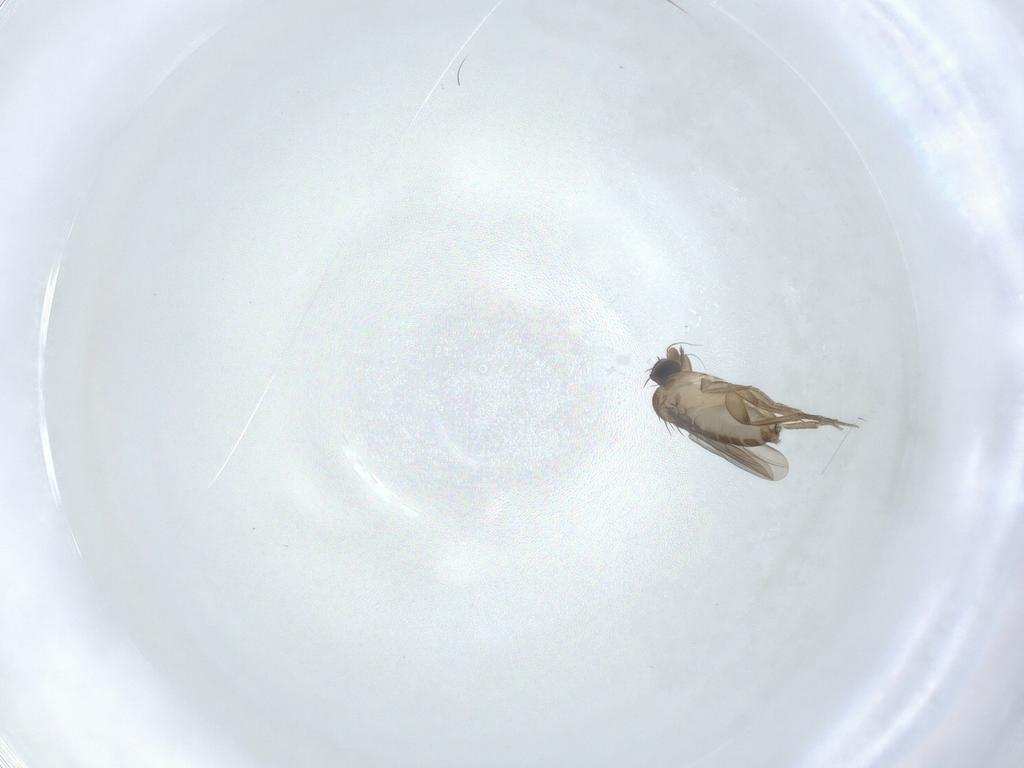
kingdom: Animalia
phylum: Arthropoda
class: Insecta
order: Diptera
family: Phoridae
